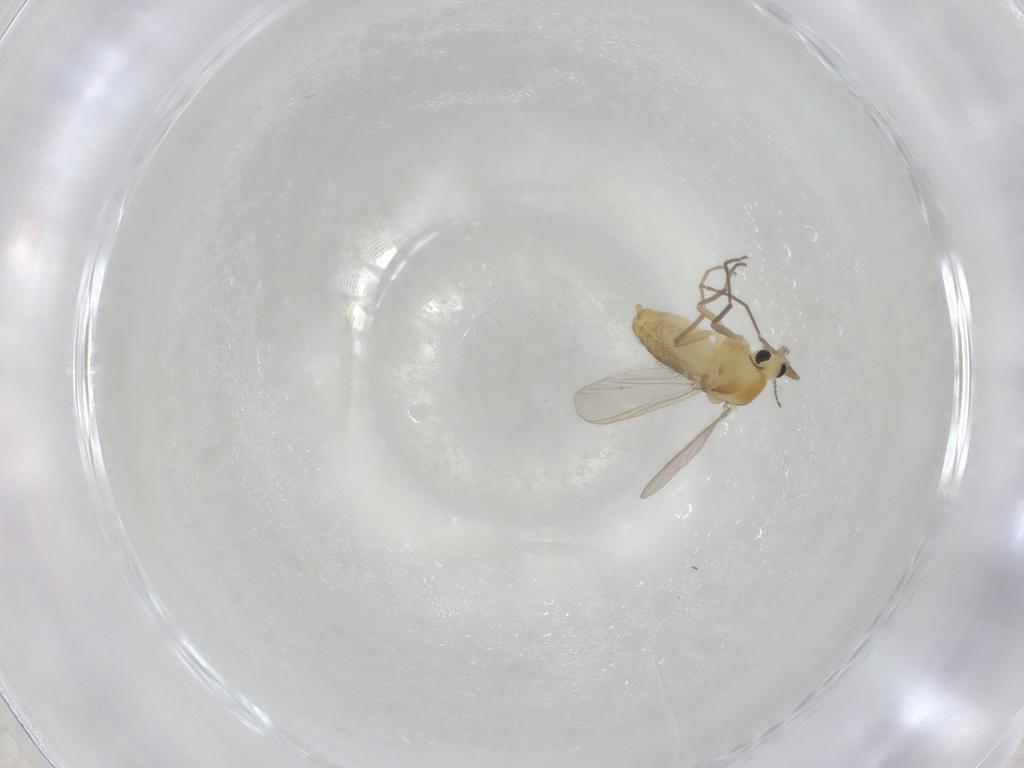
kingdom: Animalia
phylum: Arthropoda
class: Insecta
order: Diptera
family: Chironomidae
